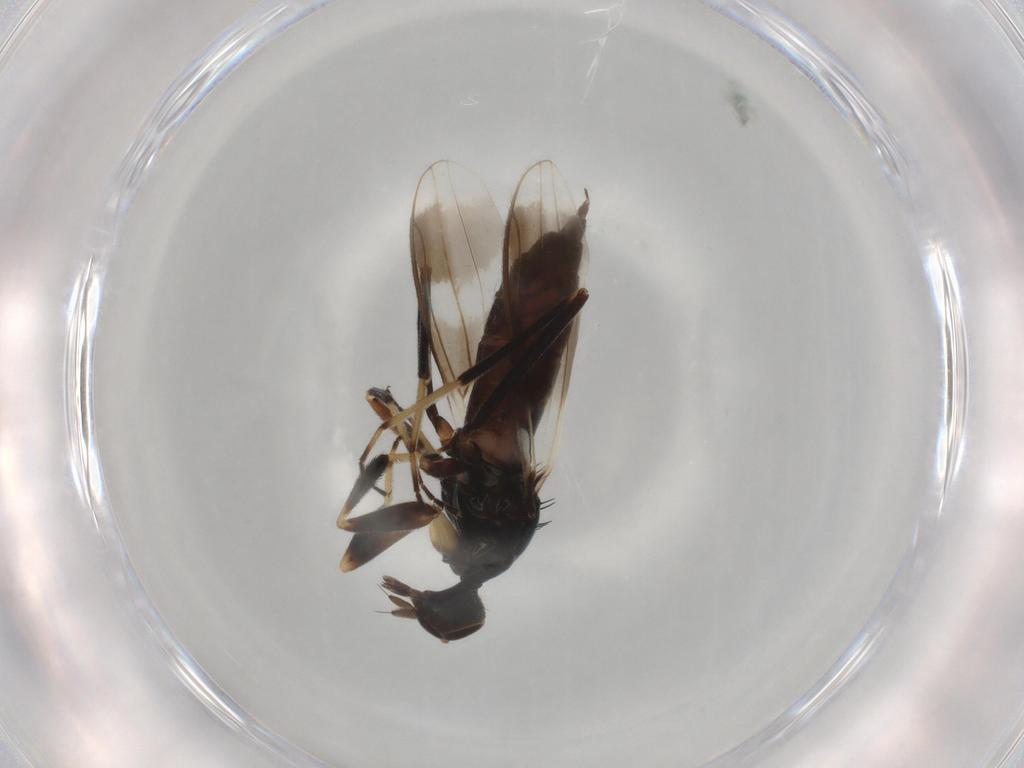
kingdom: Animalia
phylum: Arthropoda
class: Insecta
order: Diptera
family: Hybotidae
